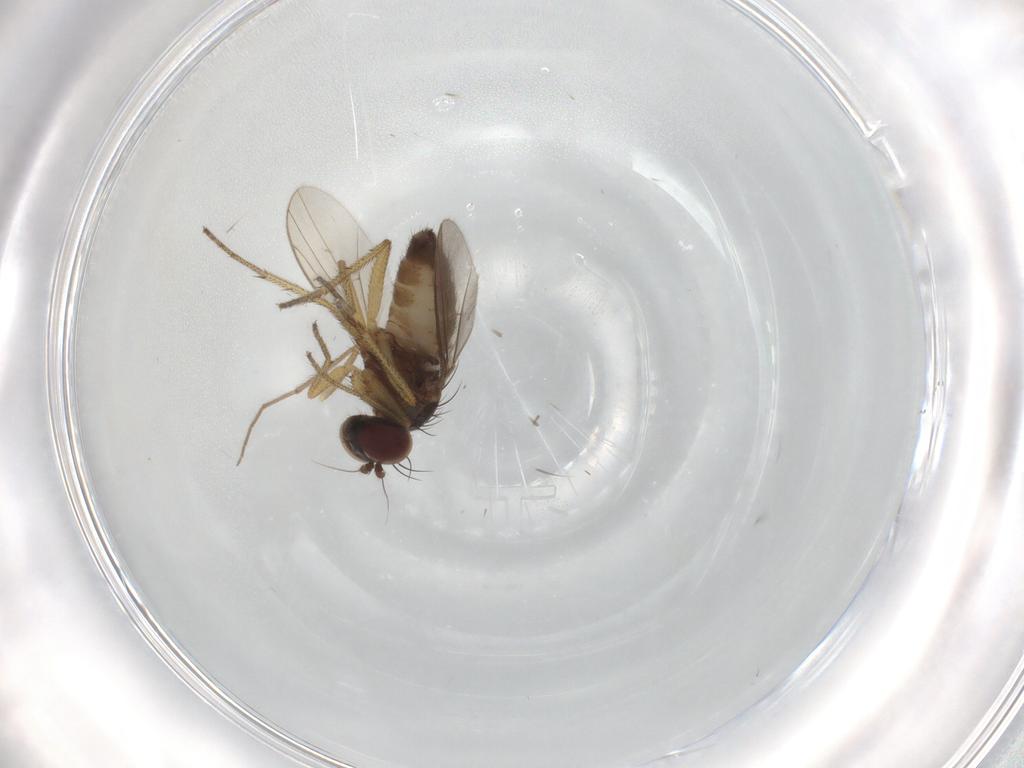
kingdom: Animalia
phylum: Arthropoda
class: Insecta
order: Diptera
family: Dolichopodidae
